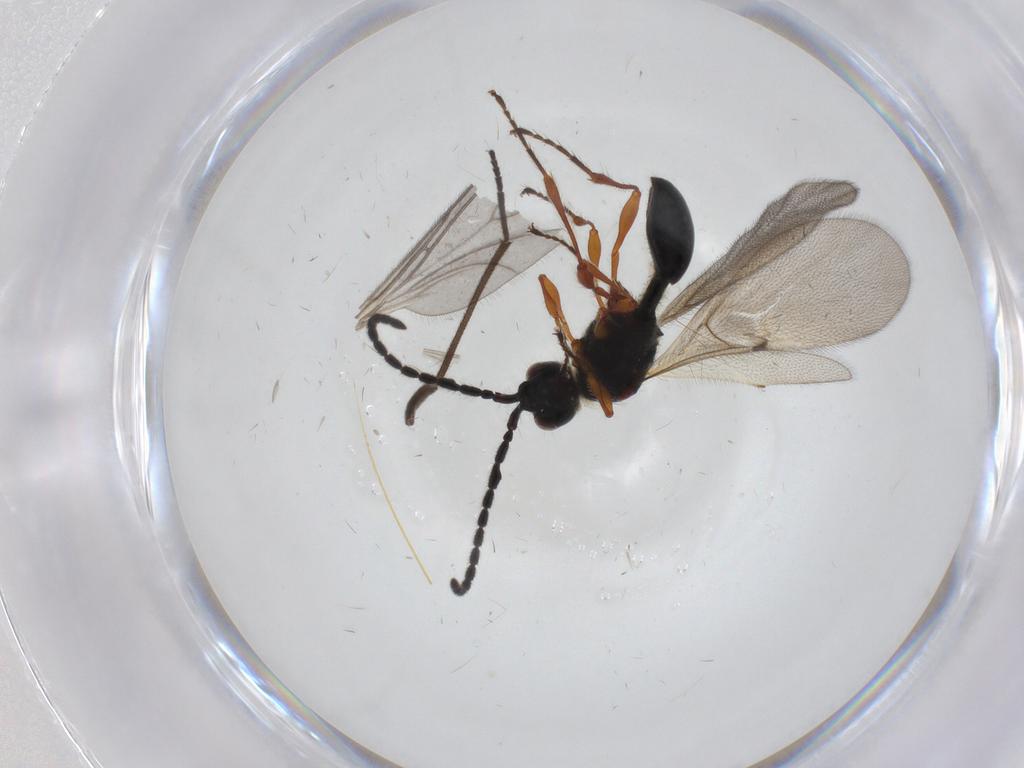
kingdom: Animalia
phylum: Arthropoda
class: Insecta
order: Hymenoptera
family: Diapriidae
